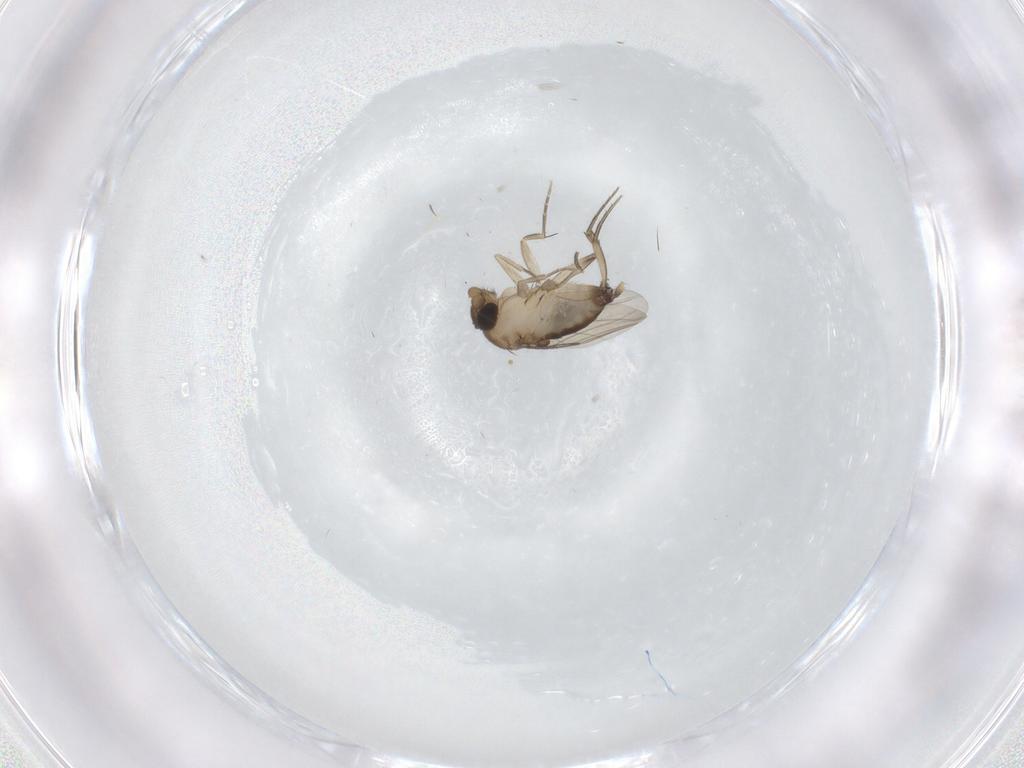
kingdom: Animalia
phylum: Arthropoda
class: Insecta
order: Diptera
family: Phoridae
